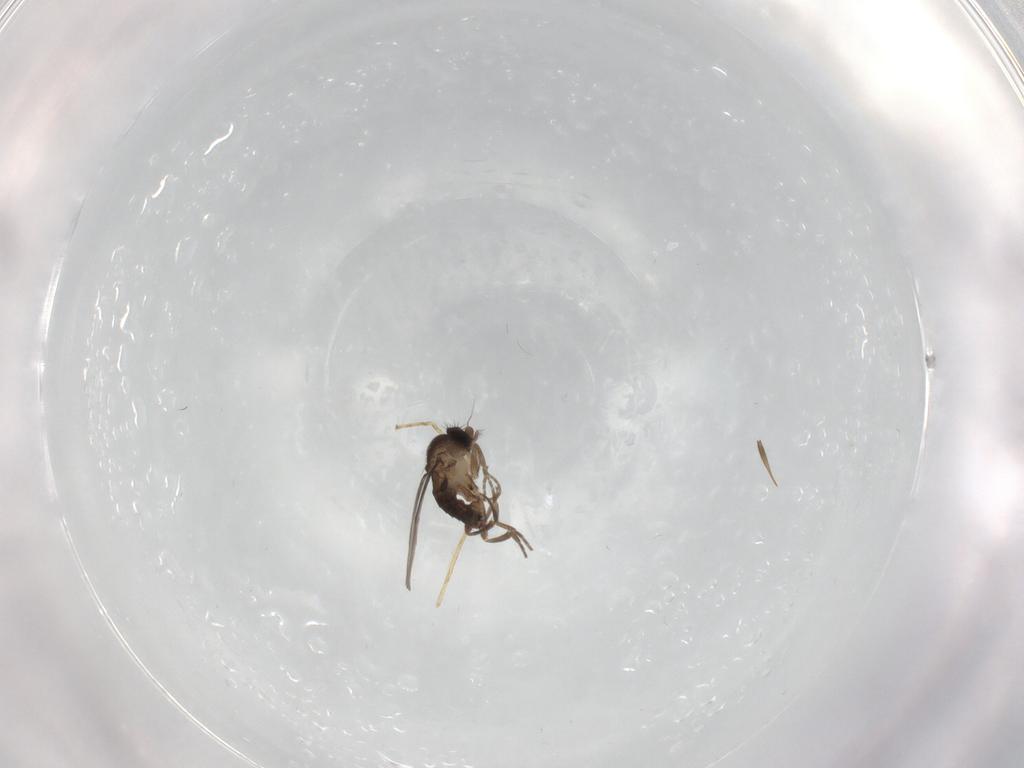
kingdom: Animalia
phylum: Arthropoda
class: Insecta
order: Diptera
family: Chironomidae
